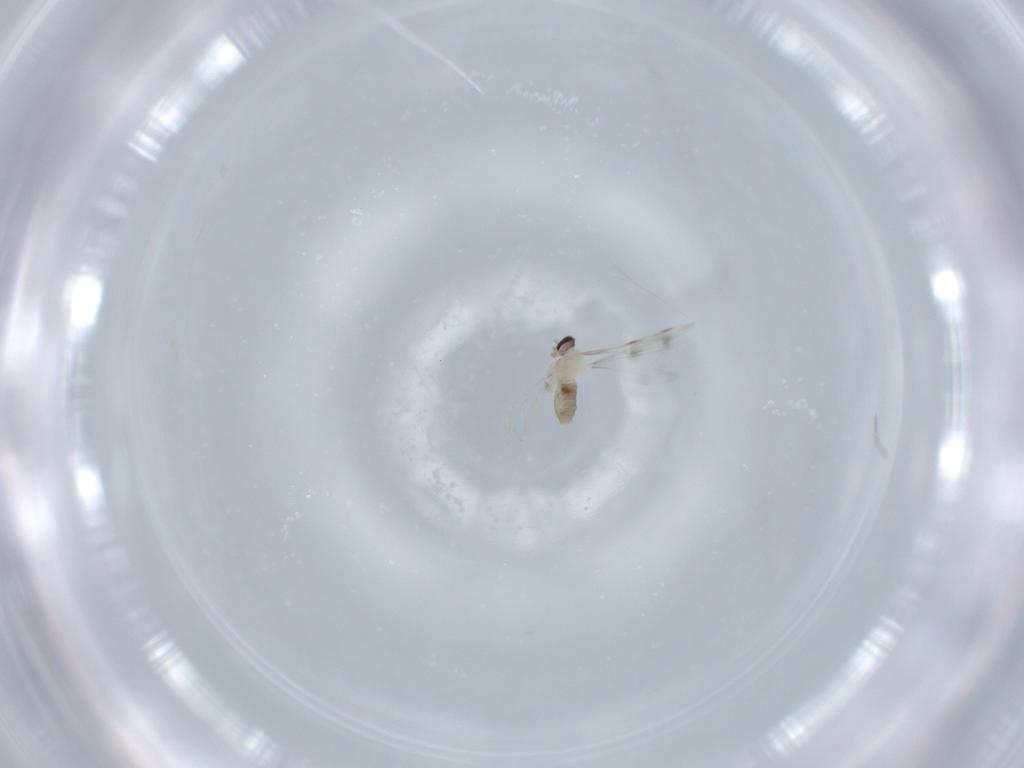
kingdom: Animalia
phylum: Arthropoda
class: Insecta
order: Diptera
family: Cecidomyiidae
